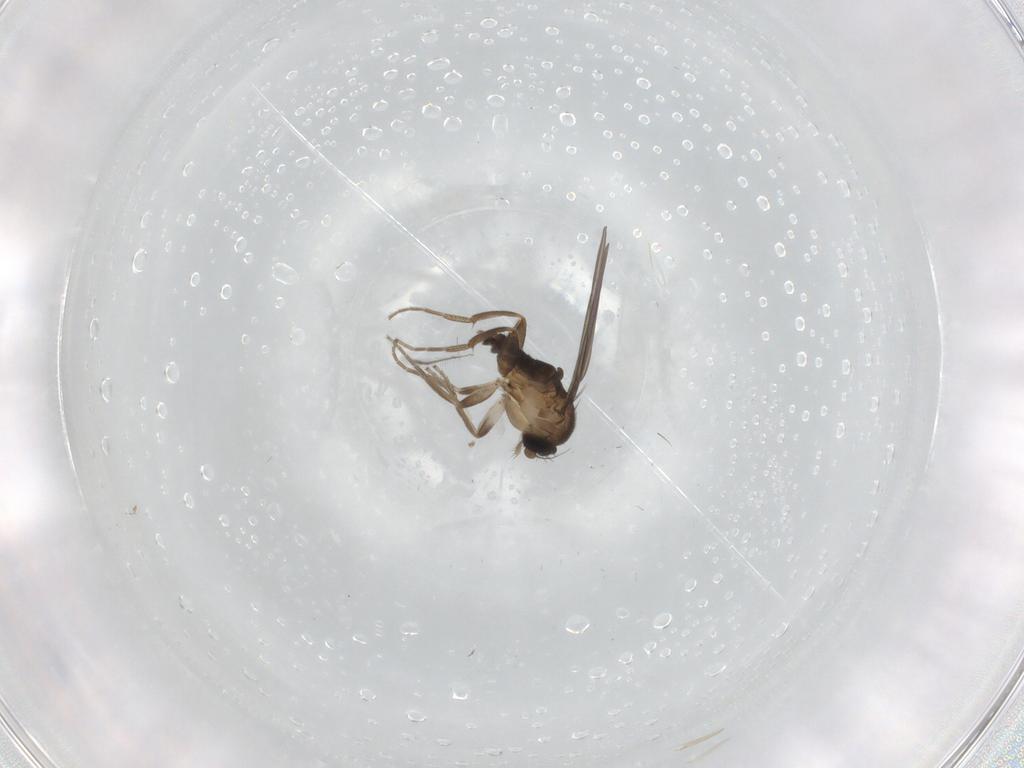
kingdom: Animalia
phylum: Arthropoda
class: Insecta
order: Diptera
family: Phoridae
